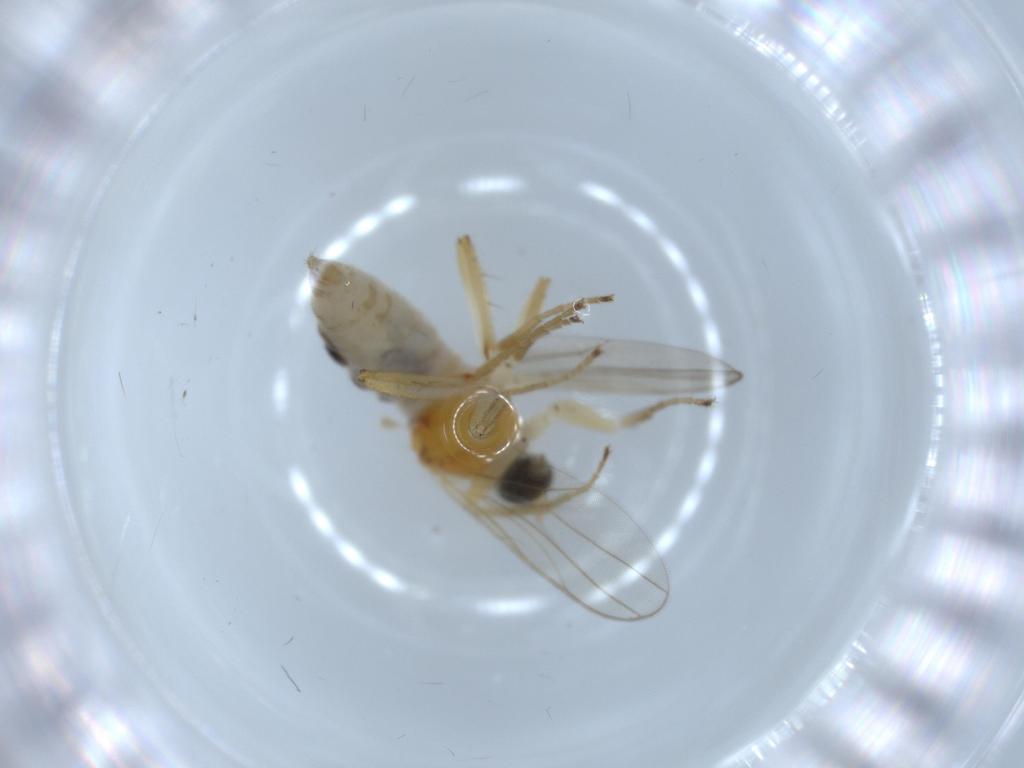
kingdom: Animalia
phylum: Arthropoda
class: Insecta
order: Diptera
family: Hybotidae
